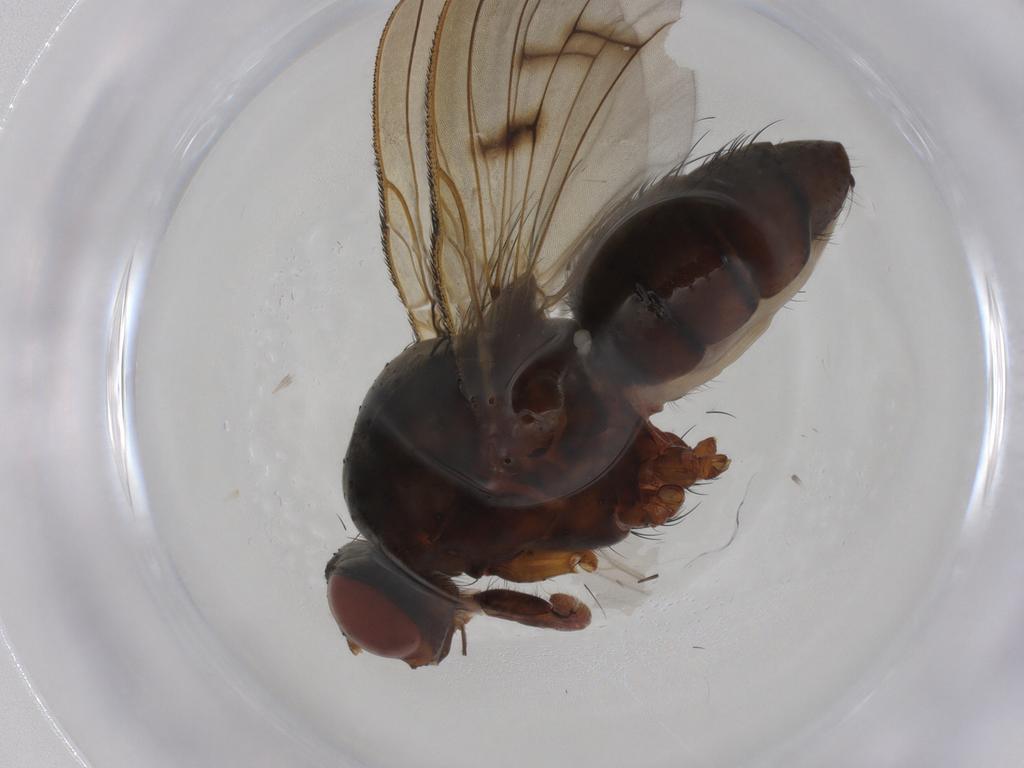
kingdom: Animalia
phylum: Arthropoda
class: Insecta
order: Diptera
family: Anthomyiidae
